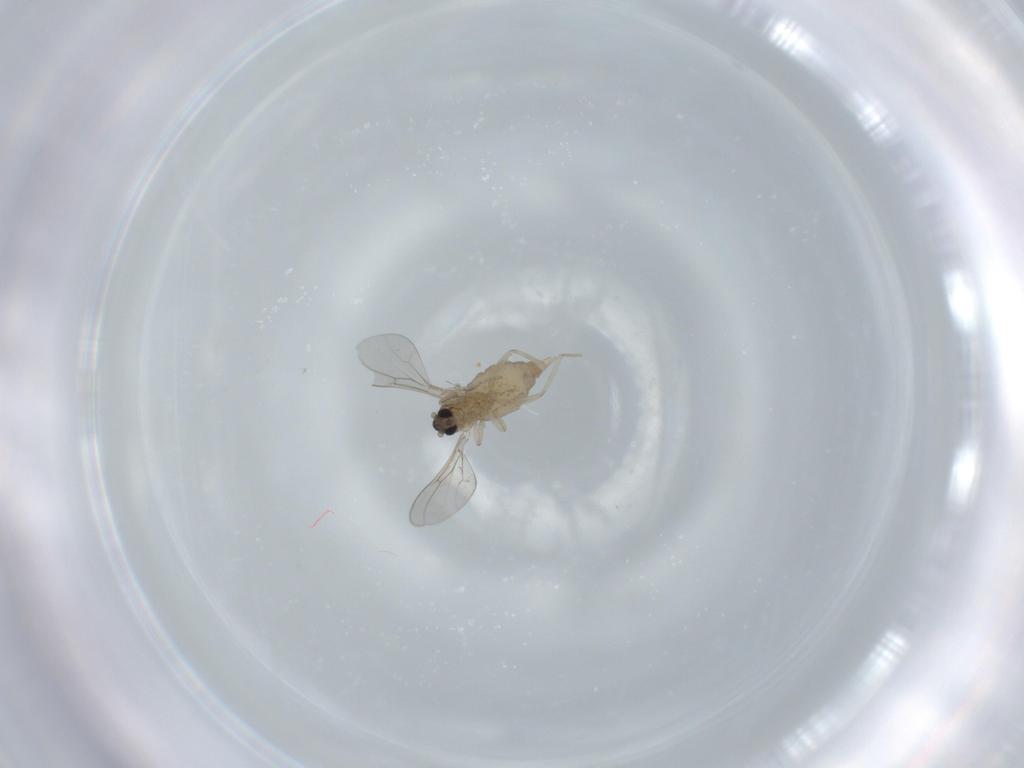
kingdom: Animalia
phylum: Arthropoda
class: Insecta
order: Diptera
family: Cecidomyiidae
